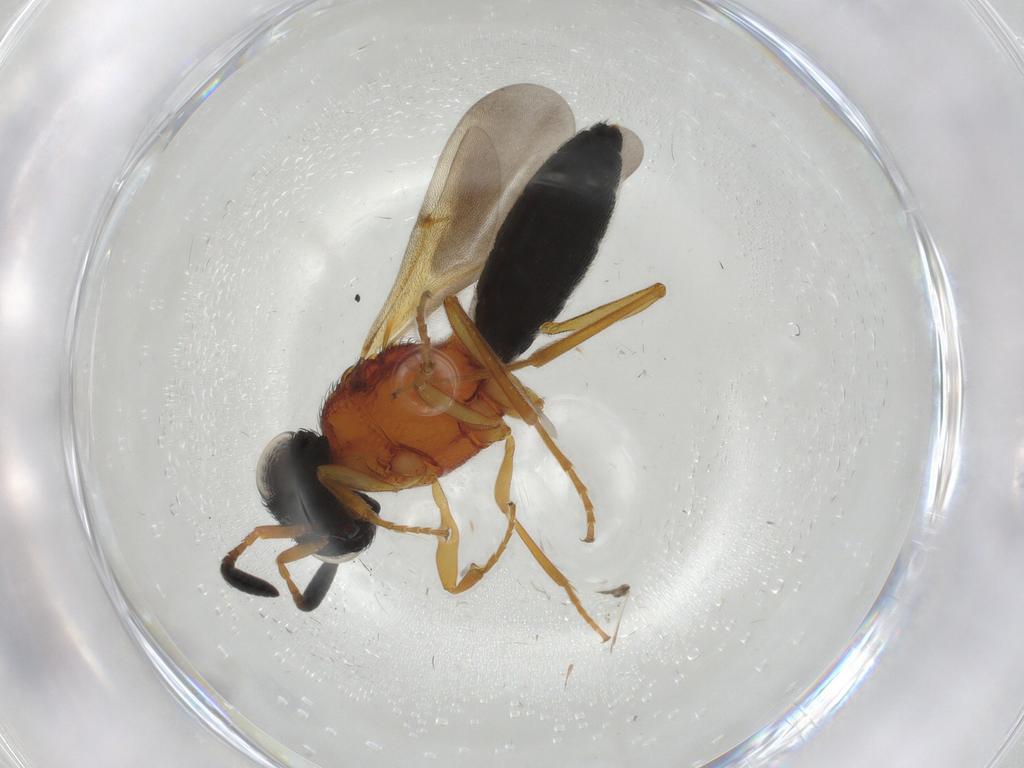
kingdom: Animalia
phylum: Arthropoda
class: Insecta
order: Hymenoptera
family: Scelionidae
